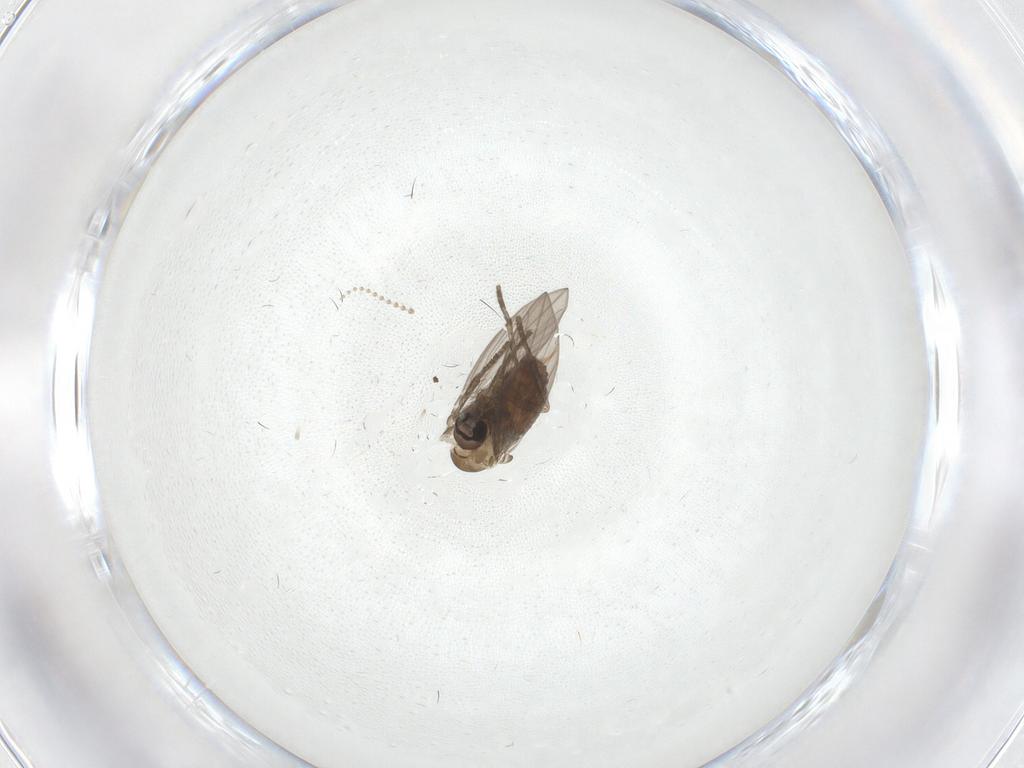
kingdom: Animalia
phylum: Arthropoda
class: Insecta
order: Diptera
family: Psychodidae
